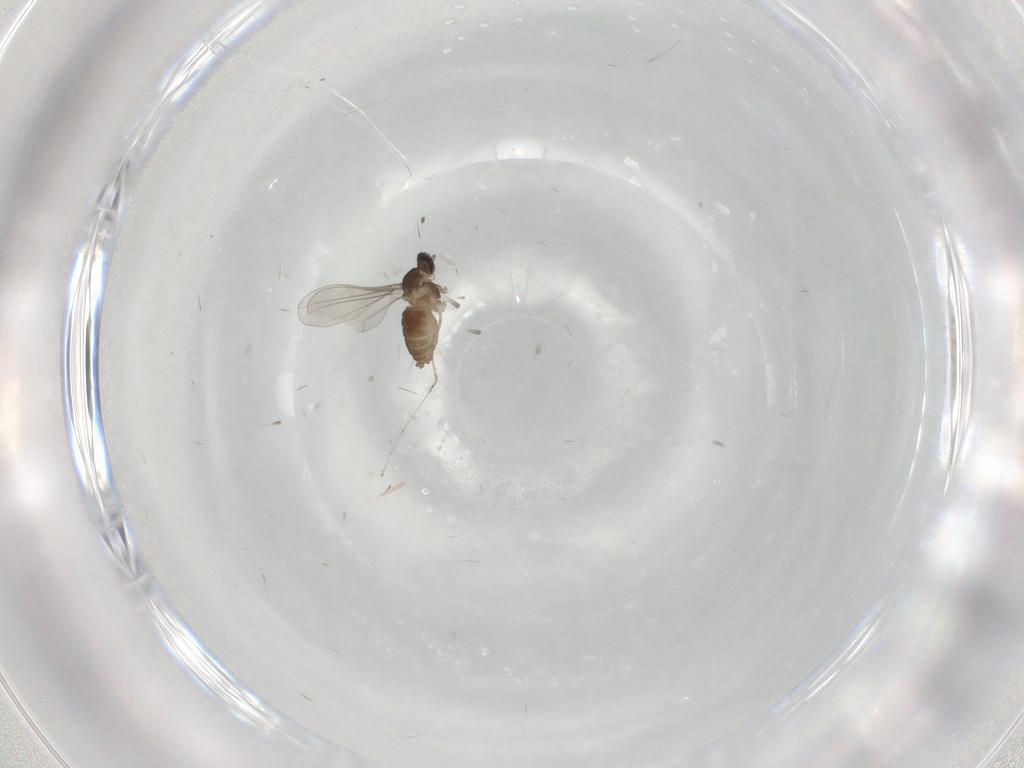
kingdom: Animalia
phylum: Arthropoda
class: Insecta
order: Diptera
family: Cecidomyiidae
